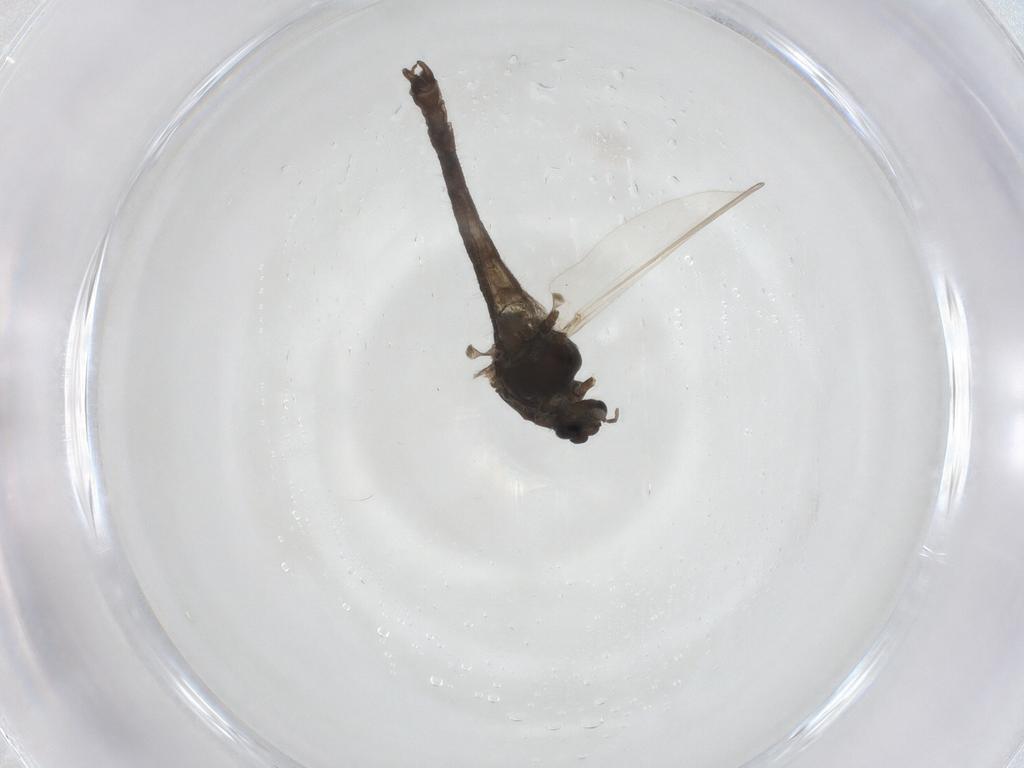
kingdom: Animalia
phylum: Arthropoda
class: Insecta
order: Diptera
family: Chironomidae
